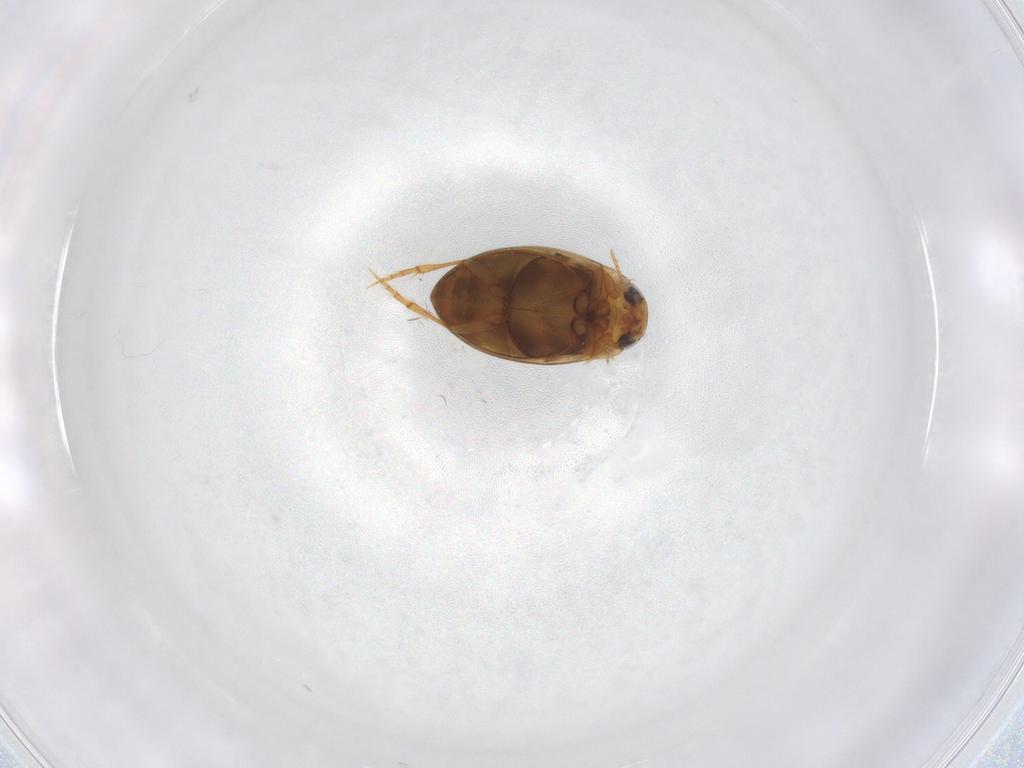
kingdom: Animalia
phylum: Arthropoda
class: Insecta
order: Coleoptera
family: Dytiscidae
